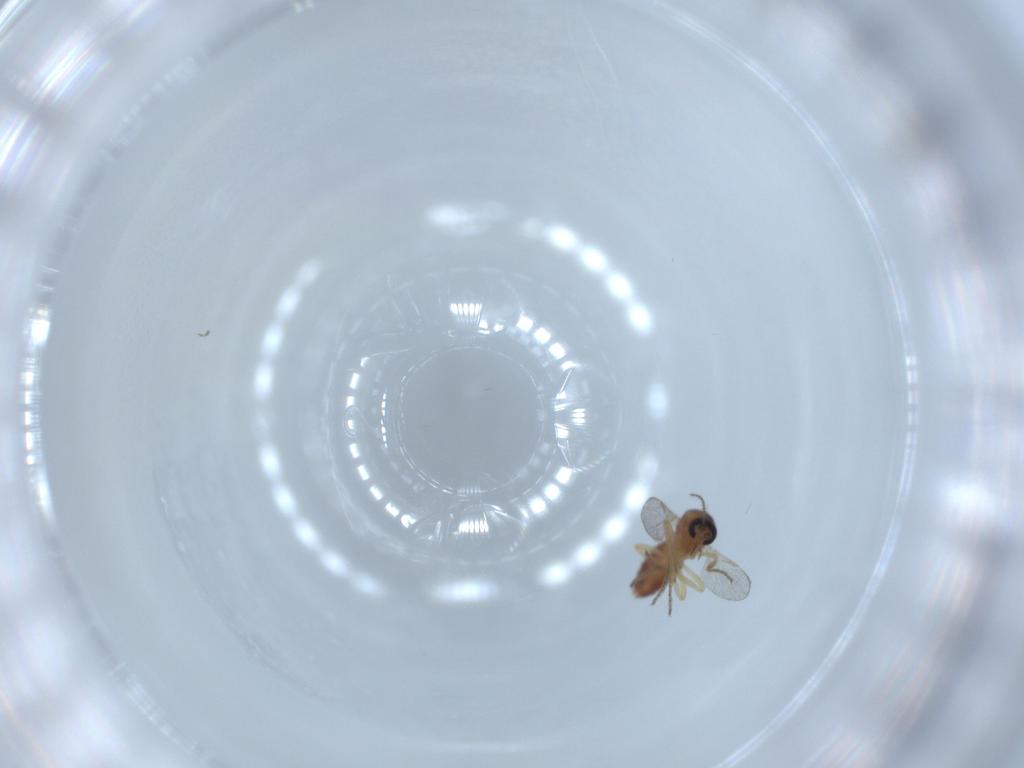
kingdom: Animalia
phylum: Arthropoda
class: Insecta
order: Diptera
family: Ceratopogonidae
